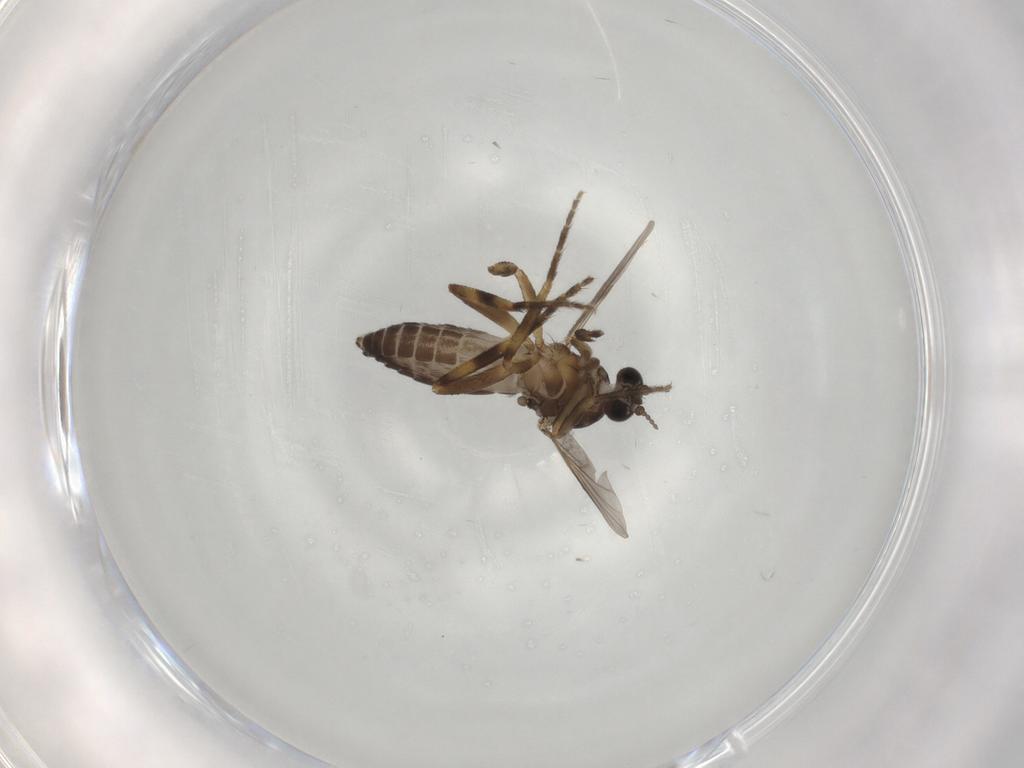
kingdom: Animalia
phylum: Arthropoda
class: Insecta
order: Diptera
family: Ceratopogonidae
